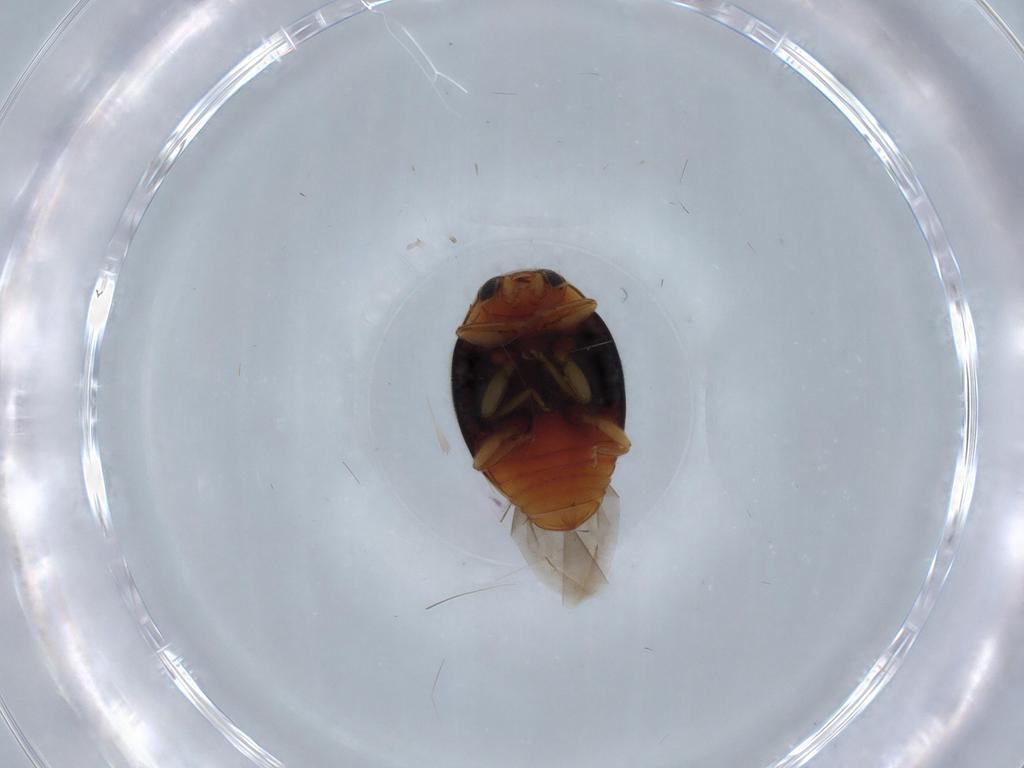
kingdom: Animalia
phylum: Arthropoda
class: Insecta
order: Coleoptera
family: Coccinellidae
